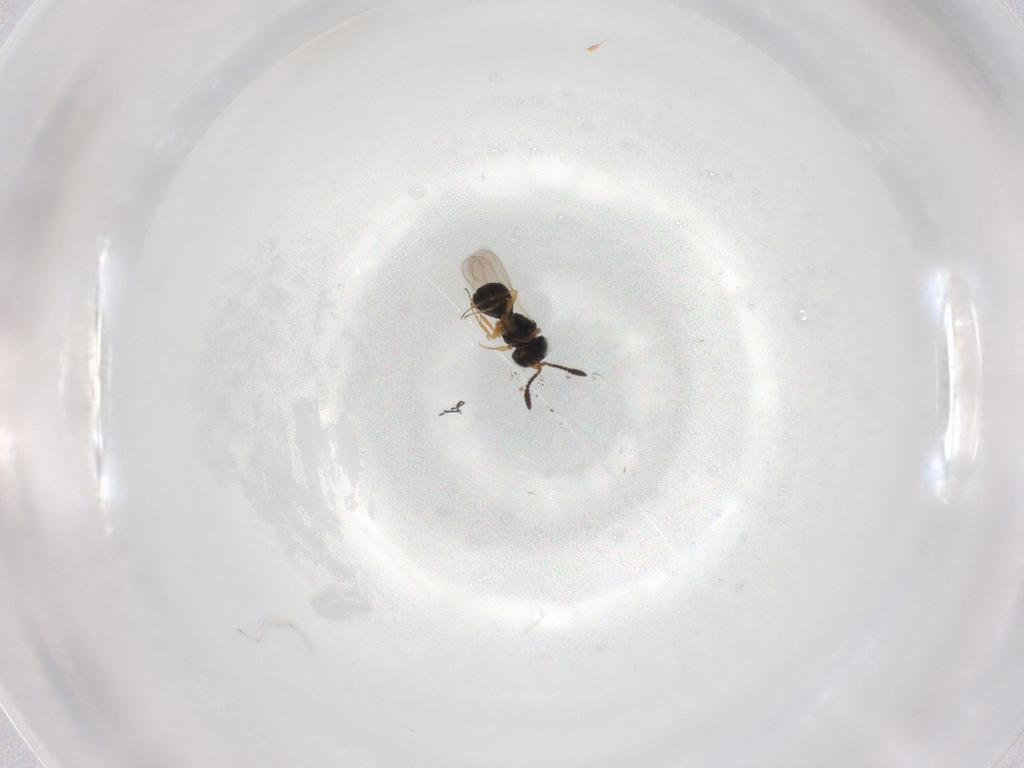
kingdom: Animalia
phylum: Arthropoda
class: Insecta
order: Hymenoptera
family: Scelionidae
